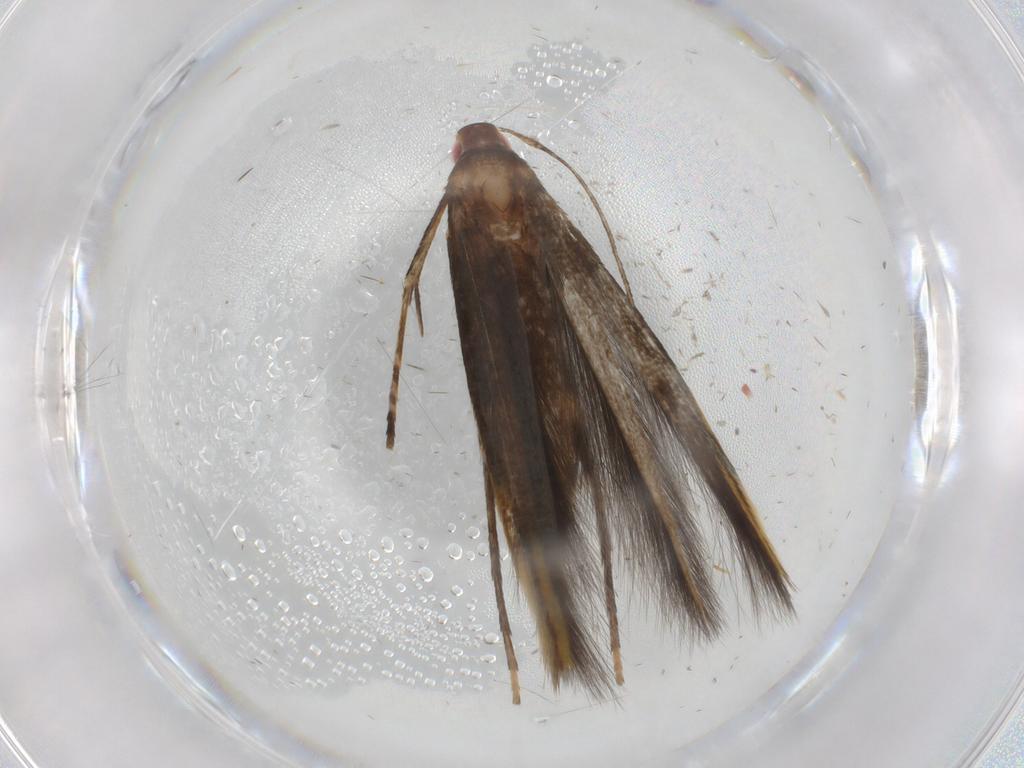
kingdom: Animalia
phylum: Arthropoda
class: Insecta
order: Lepidoptera
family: Cosmopterigidae
